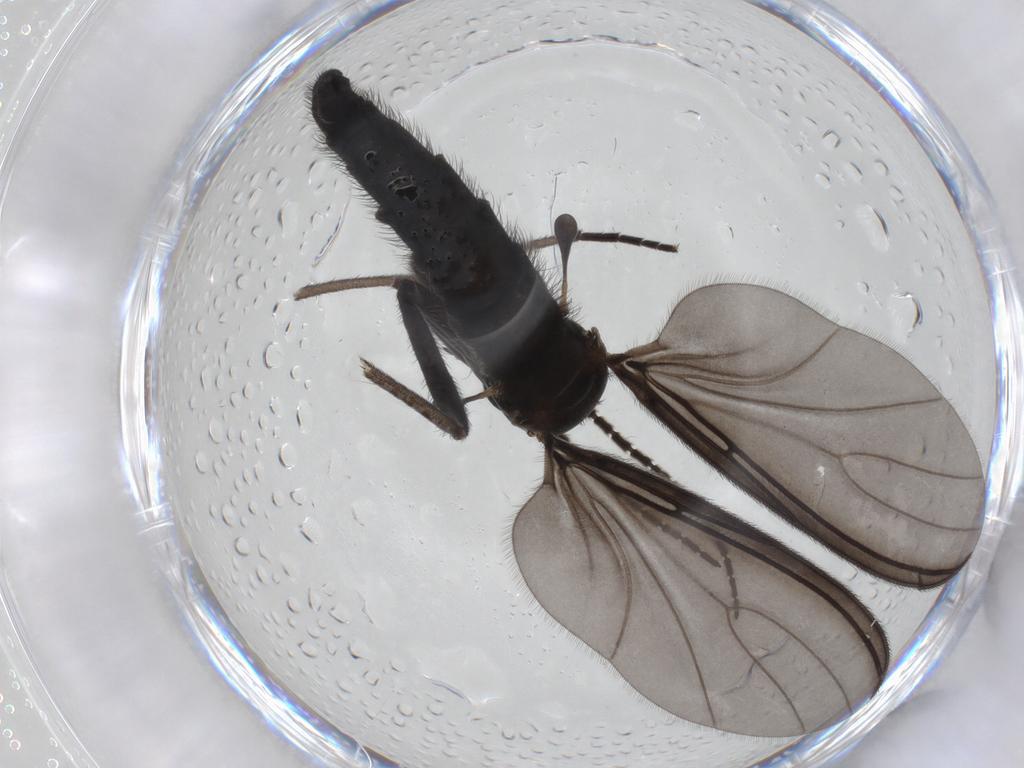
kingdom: Animalia
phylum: Arthropoda
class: Insecta
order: Diptera
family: Sciaridae
